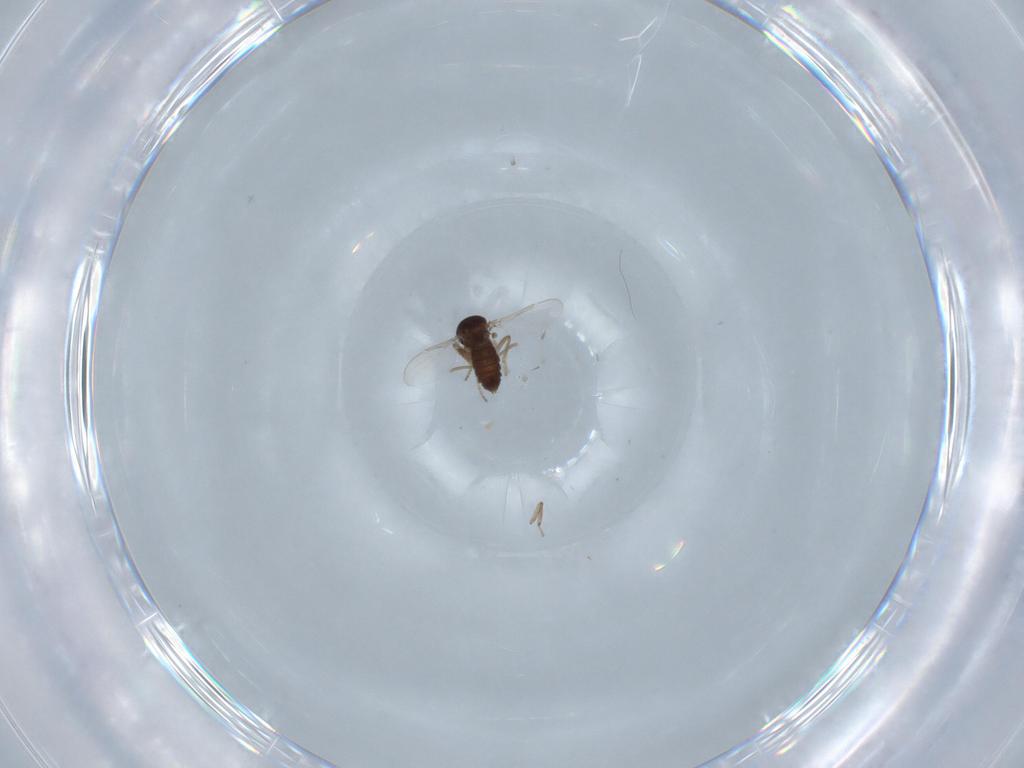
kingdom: Animalia
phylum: Arthropoda
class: Insecta
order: Diptera
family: Ceratopogonidae
